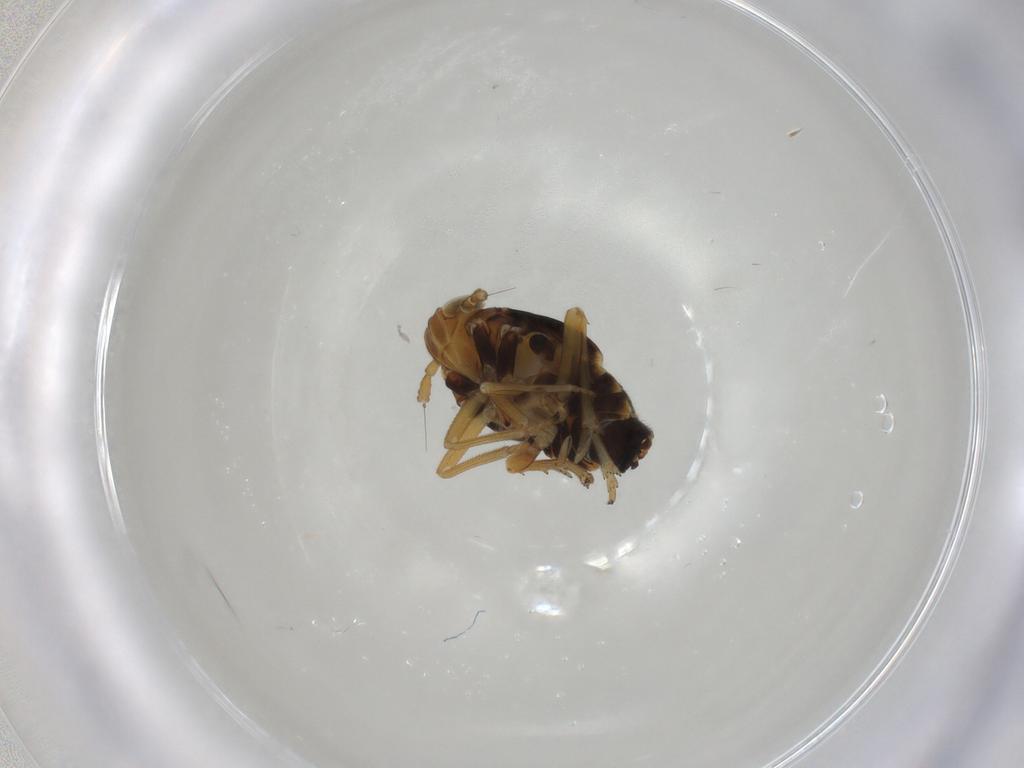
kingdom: Animalia
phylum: Arthropoda
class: Insecta
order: Hemiptera
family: Delphacidae
